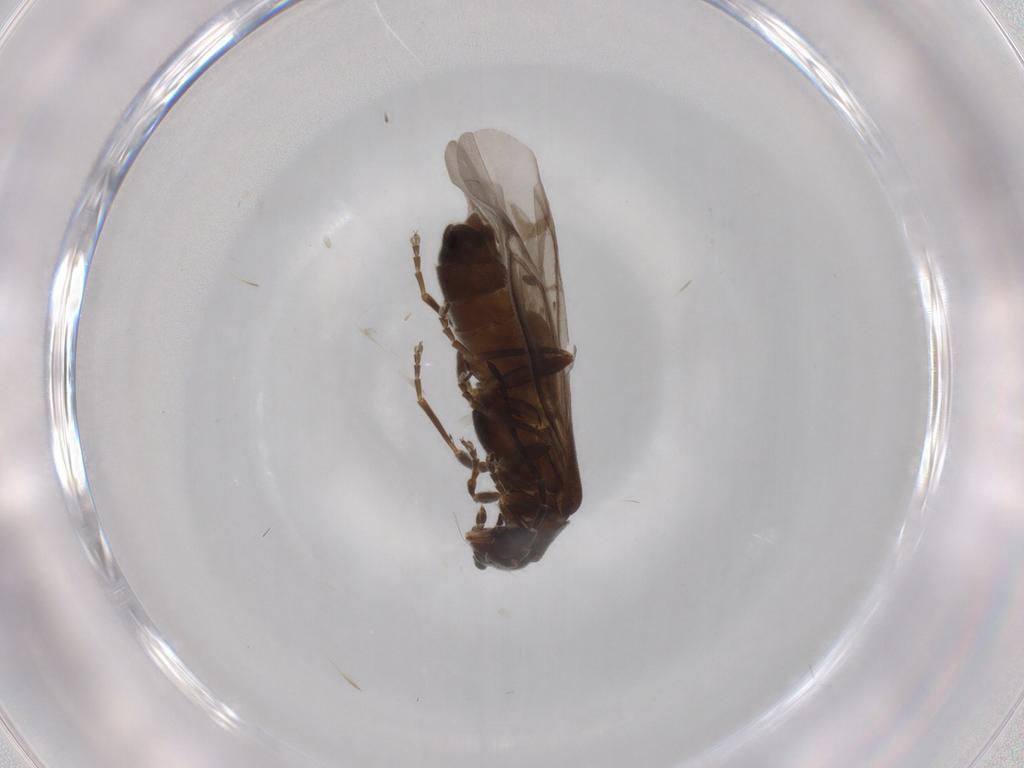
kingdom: Animalia
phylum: Arthropoda
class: Insecta
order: Coleoptera
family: Cantharidae
